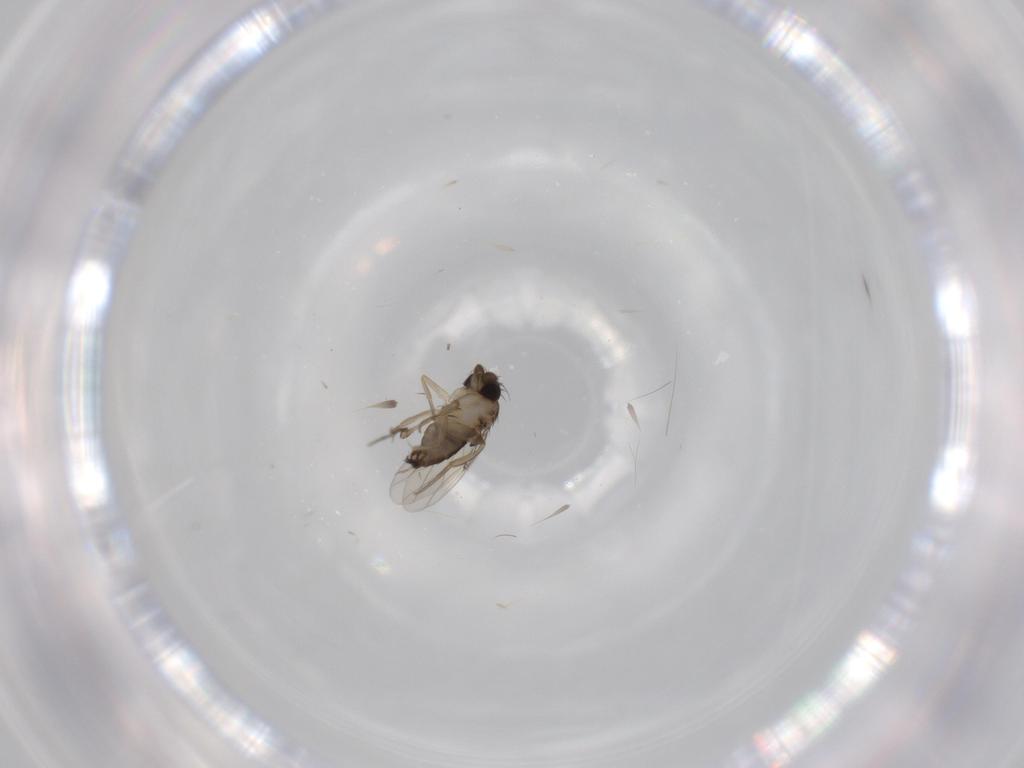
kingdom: Animalia
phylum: Arthropoda
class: Insecta
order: Diptera
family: Phoridae
